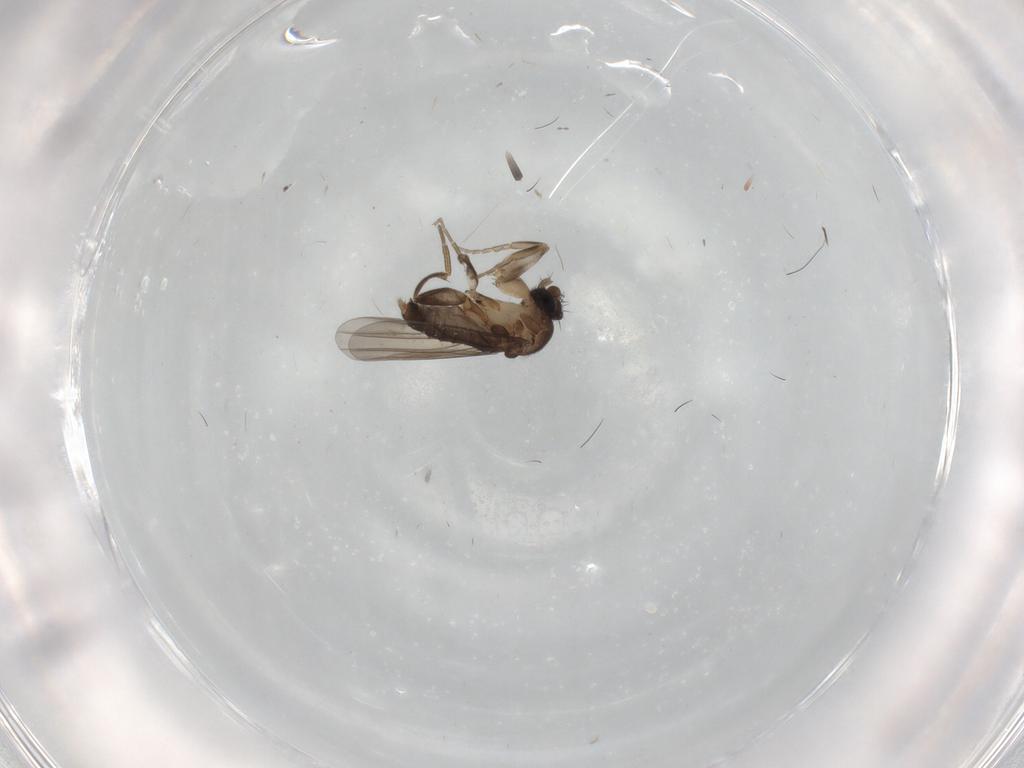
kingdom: Animalia
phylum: Arthropoda
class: Insecta
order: Diptera
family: Phoridae
